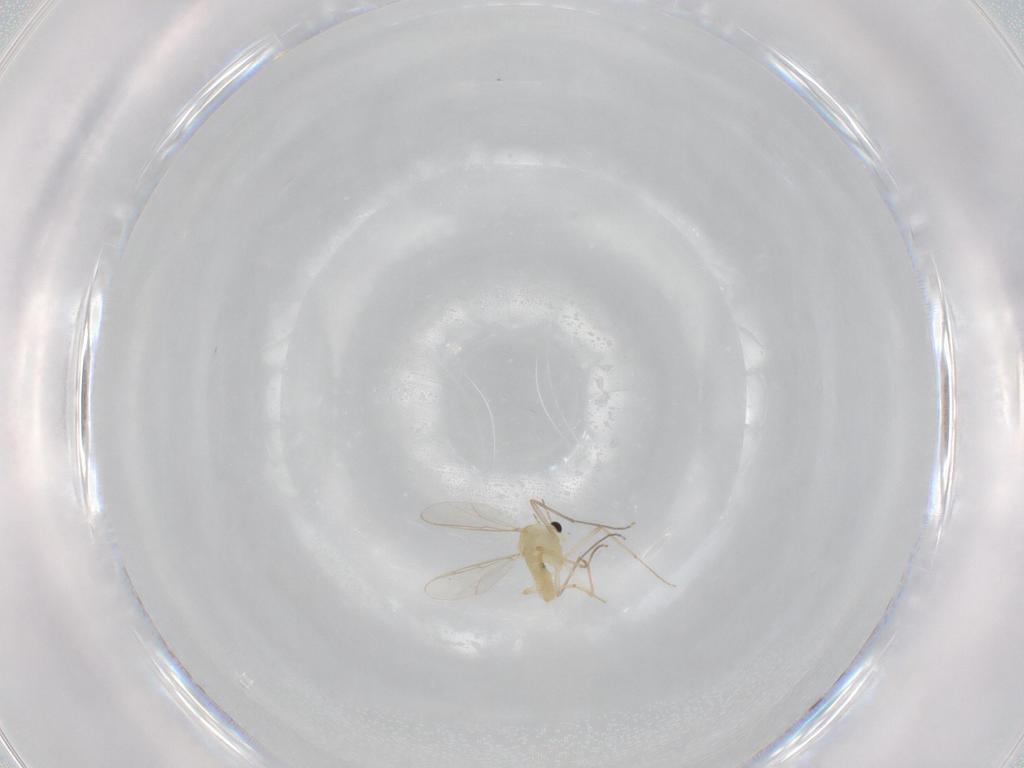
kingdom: Animalia
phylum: Arthropoda
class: Insecta
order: Diptera
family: Chironomidae
